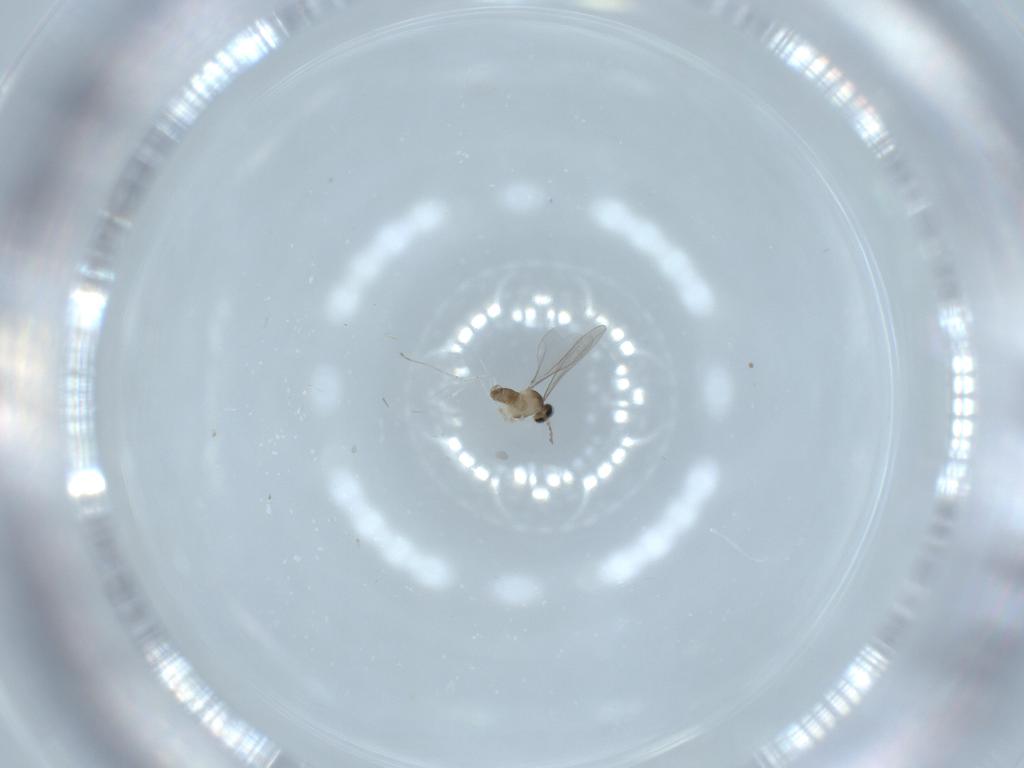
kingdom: Animalia
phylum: Arthropoda
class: Insecta
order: Diptera
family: Cecidomyiidae
